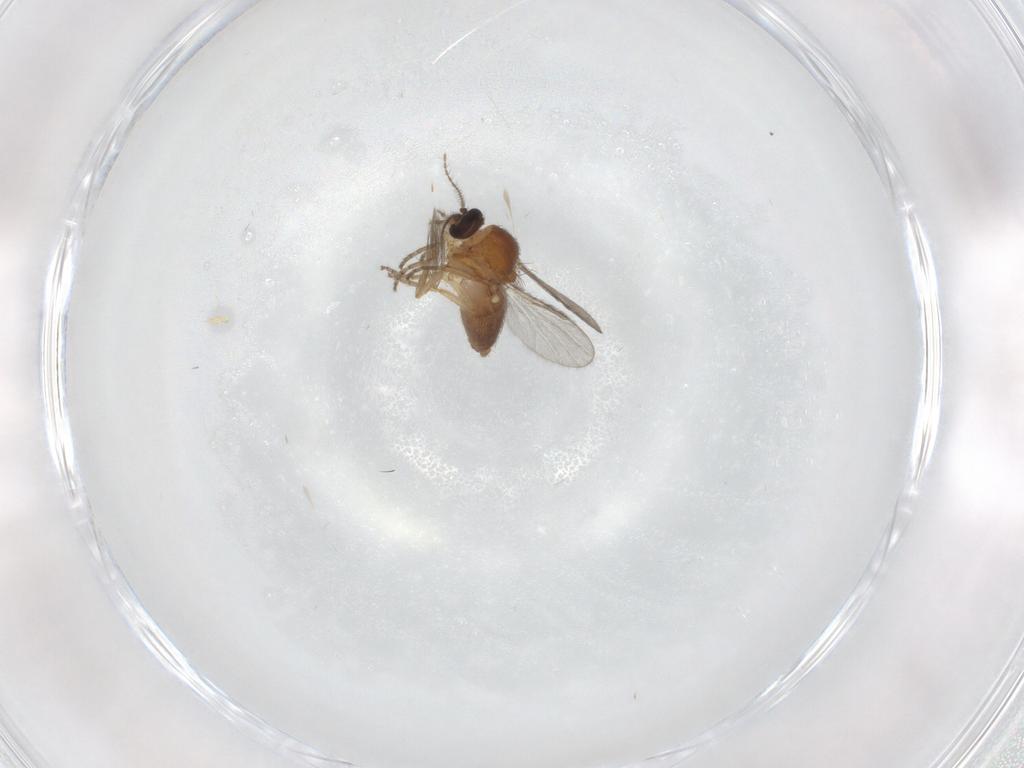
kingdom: Animalia
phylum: Arthropoda
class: Insecta
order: Diptera
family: Ceratopogonidae
